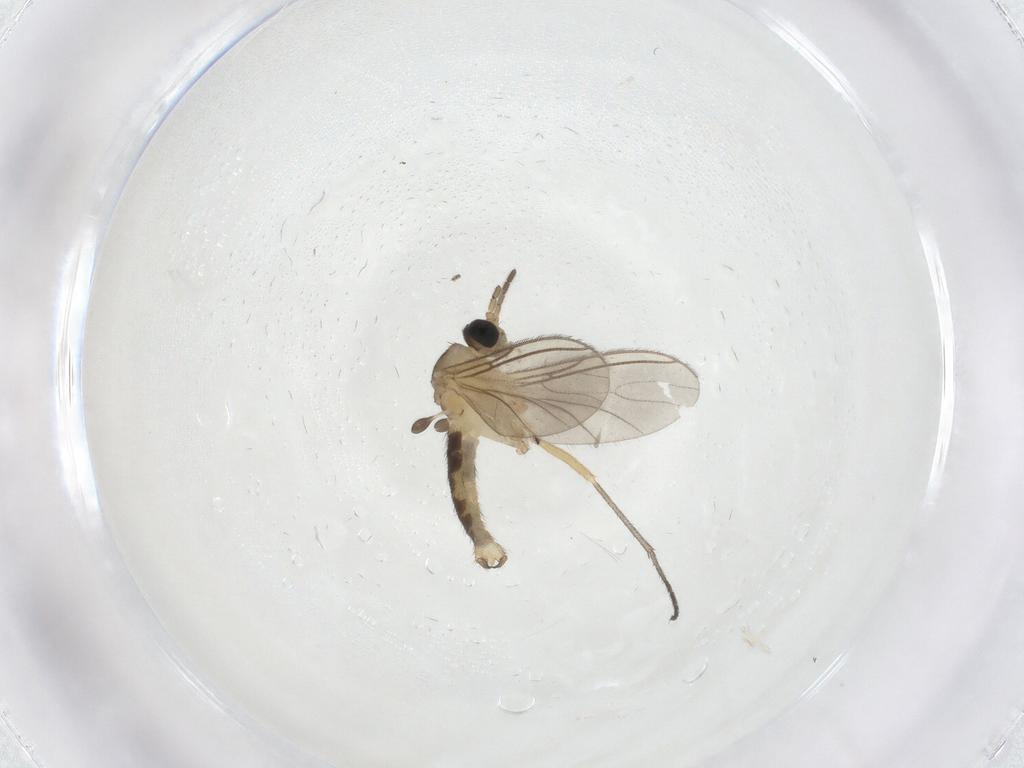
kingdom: Animalia
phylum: Arthropoda
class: Insecta
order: Diptera
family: Sciaridae
